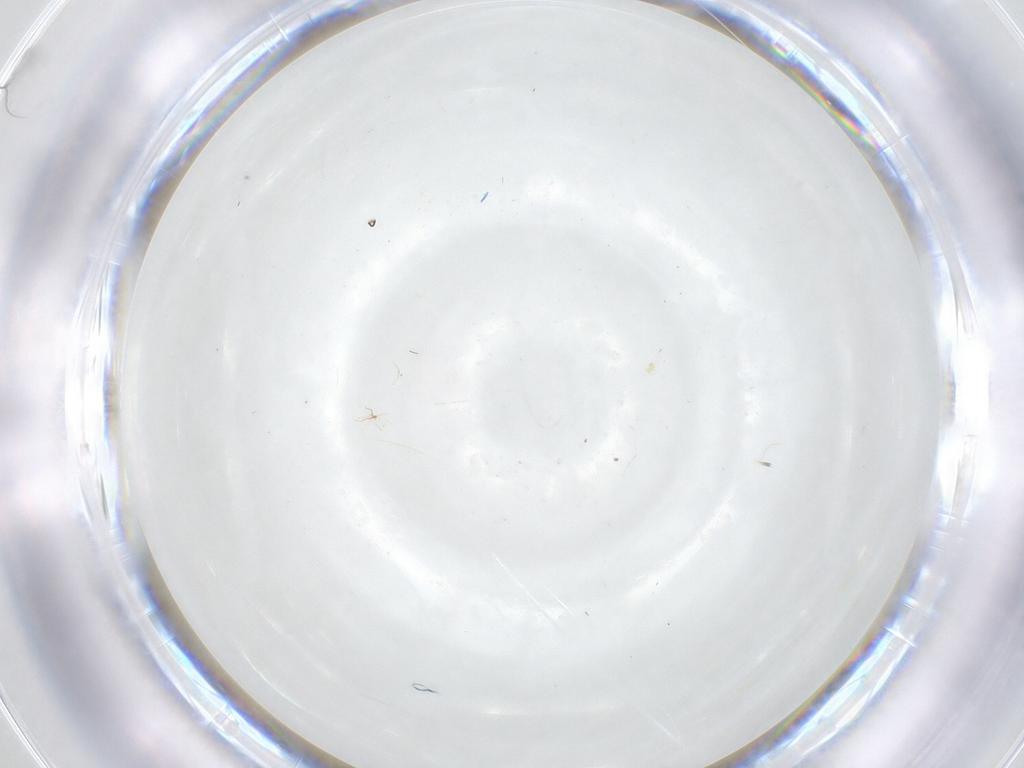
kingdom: Animalia
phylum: Arthropoda
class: Insecta
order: Hymenoptera
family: Ichneumonidae
